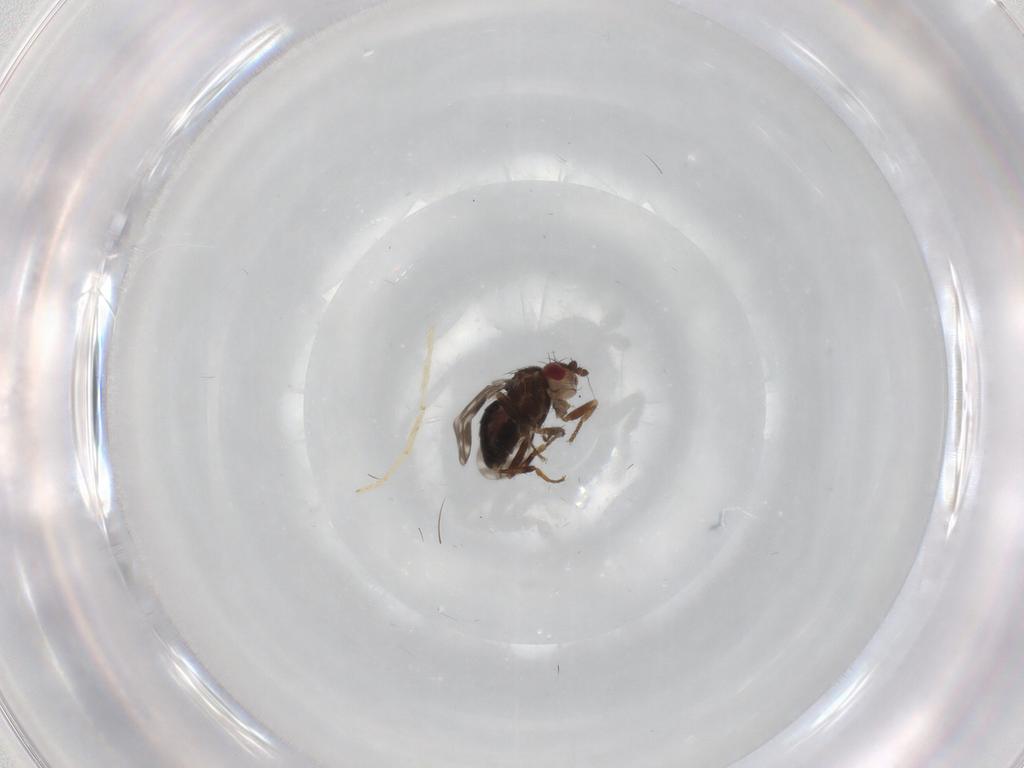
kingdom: Animalia
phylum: Arthropoda
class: Insecta
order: Diptera
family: Sphaeroceridae
